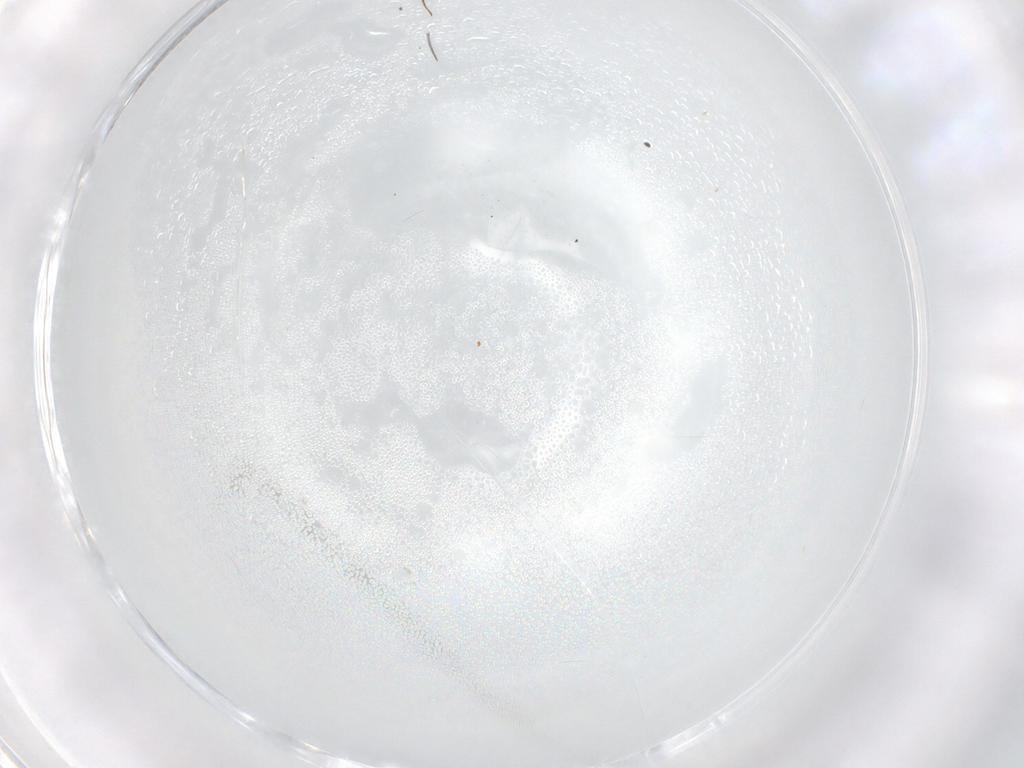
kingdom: Animalia
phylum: Arthropoda
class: Insecta
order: Hymenoptera
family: Scelionidae
